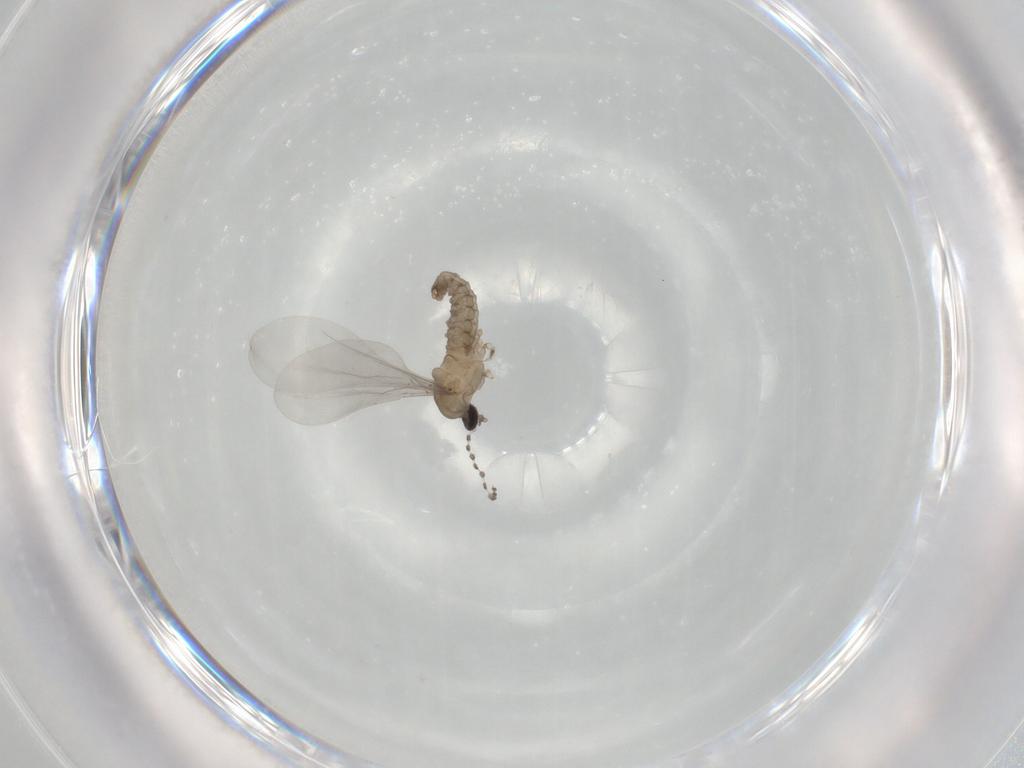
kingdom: Animalia
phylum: Arthropoda
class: Insecta
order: Diptera
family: Cecidomyiidae
